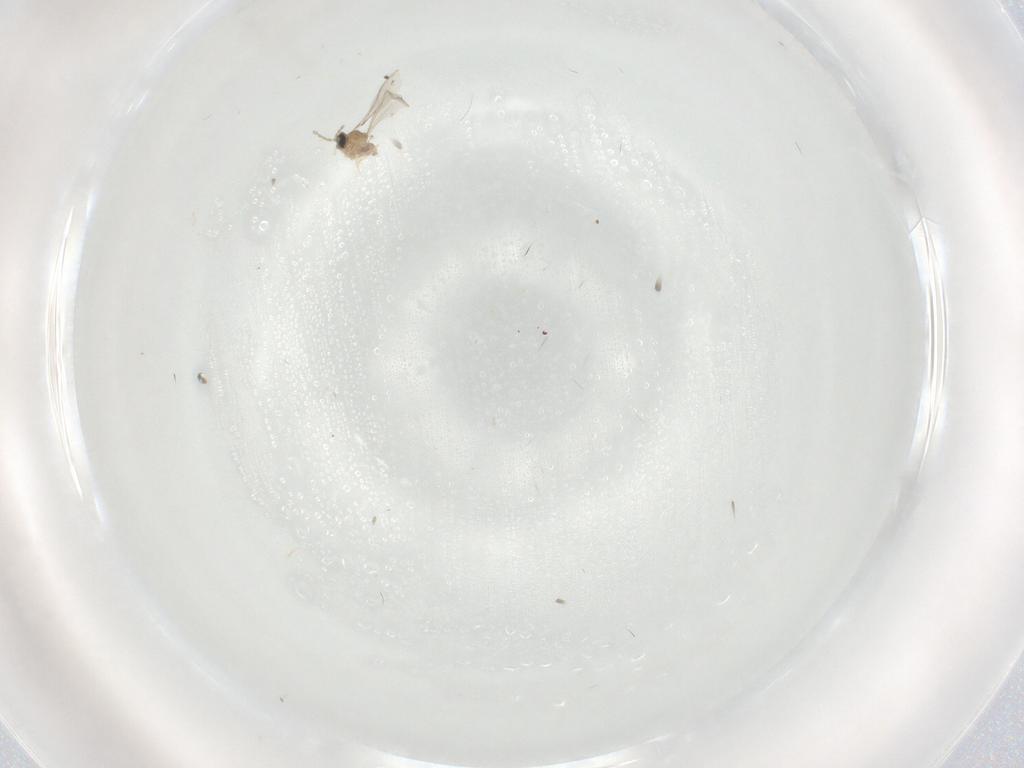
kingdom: Animalia
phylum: Arthropoda
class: Insecta
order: Diptera
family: Cecidomyiidae
